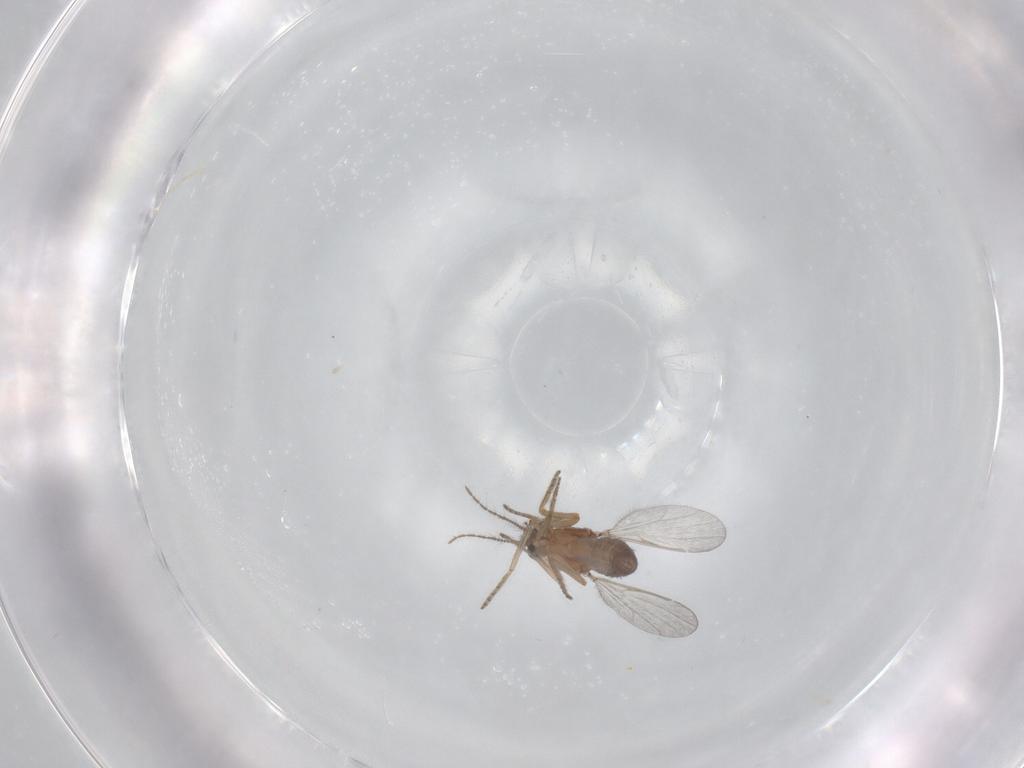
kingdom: Animalia
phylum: Arthropoda
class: Insecta
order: Diptera
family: Ceratopogonidae
